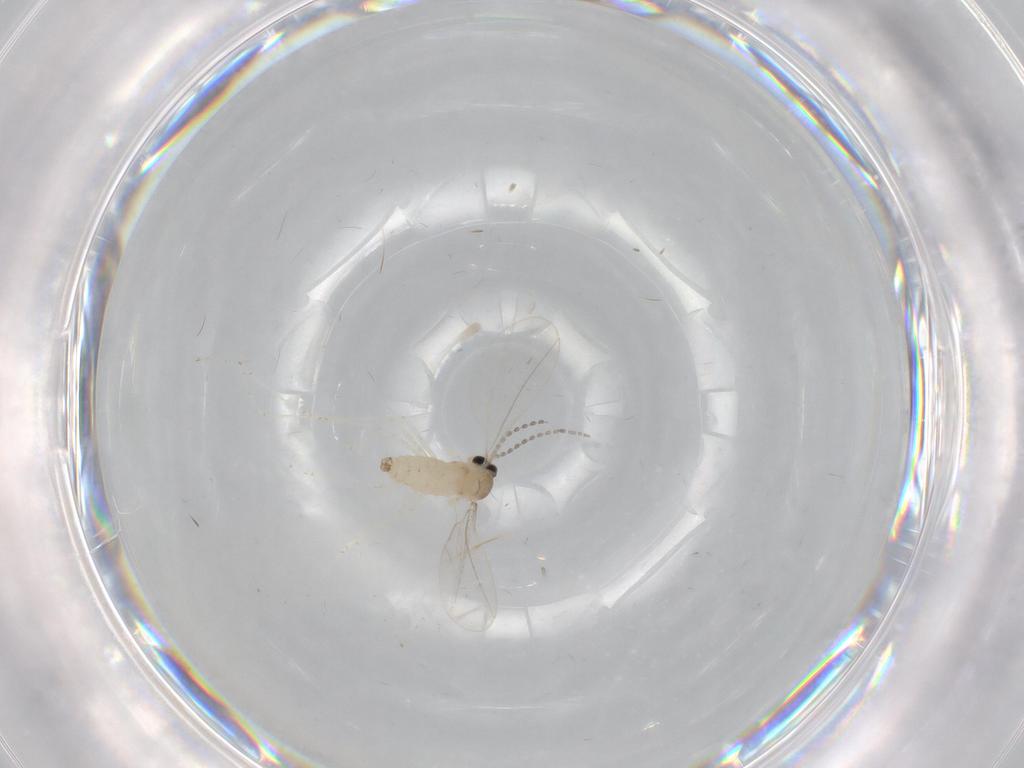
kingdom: Animalia
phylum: Arthropoda
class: Insecta
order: Diptera
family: Cecidomyiidae
